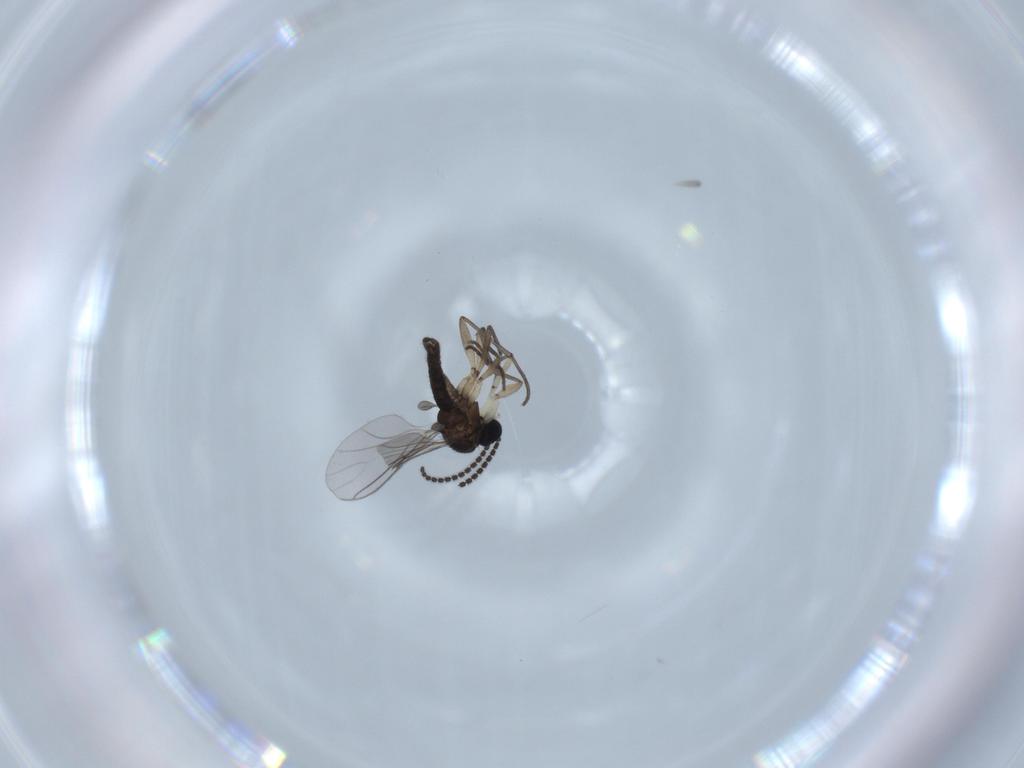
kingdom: Animalia
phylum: Arthropoda
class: Insecta
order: Diptera
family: Sciaridae
